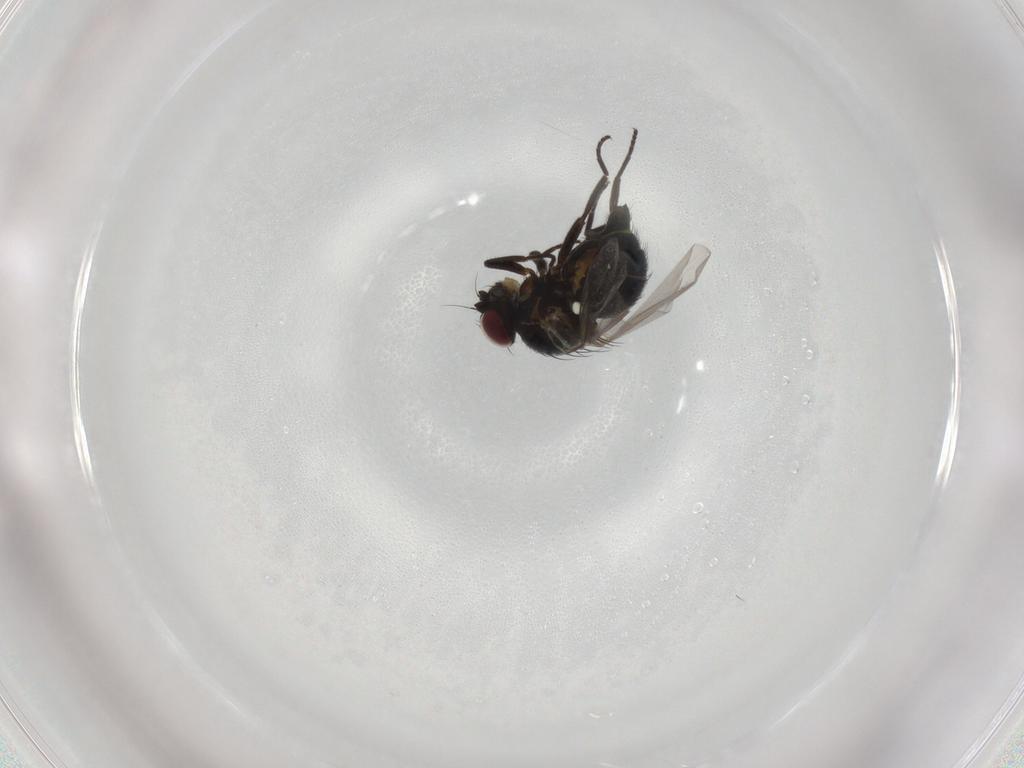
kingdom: Animalia
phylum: Arthropoda
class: Insecta
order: Diptera
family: Agromyzidae
